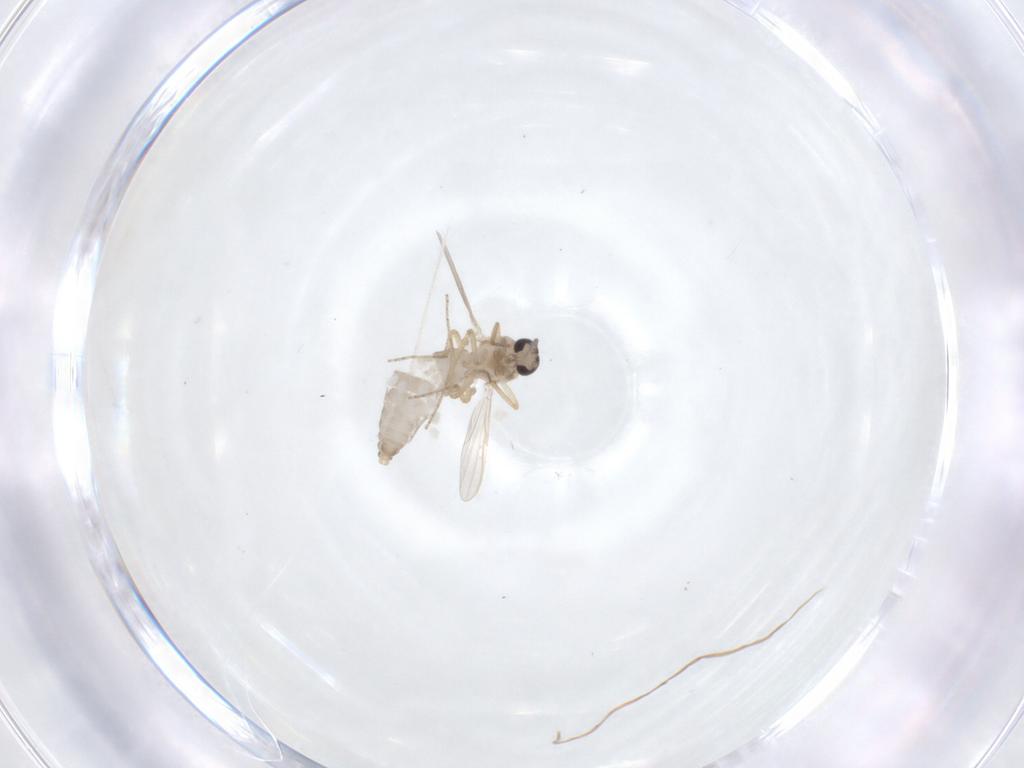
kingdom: Animalia
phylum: Arthropoda
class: Insecta
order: Diptera
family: Ceratopogonidae
